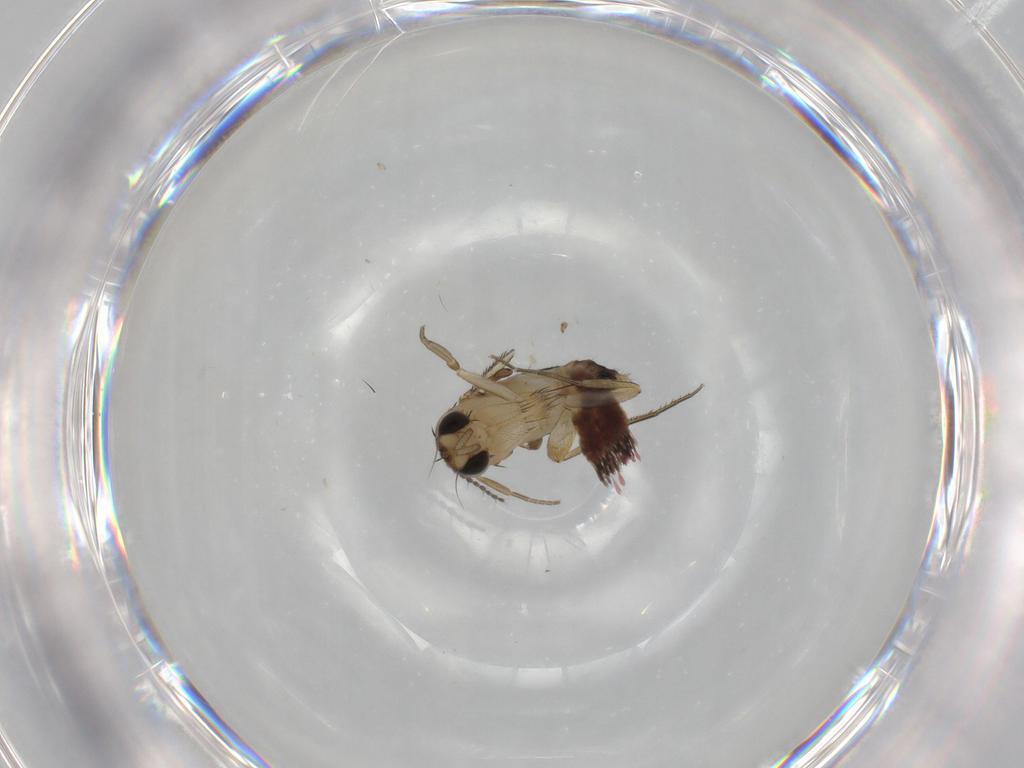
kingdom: Animalia
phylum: Arthropoda
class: Insecta
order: Diptera
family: Phoridae
